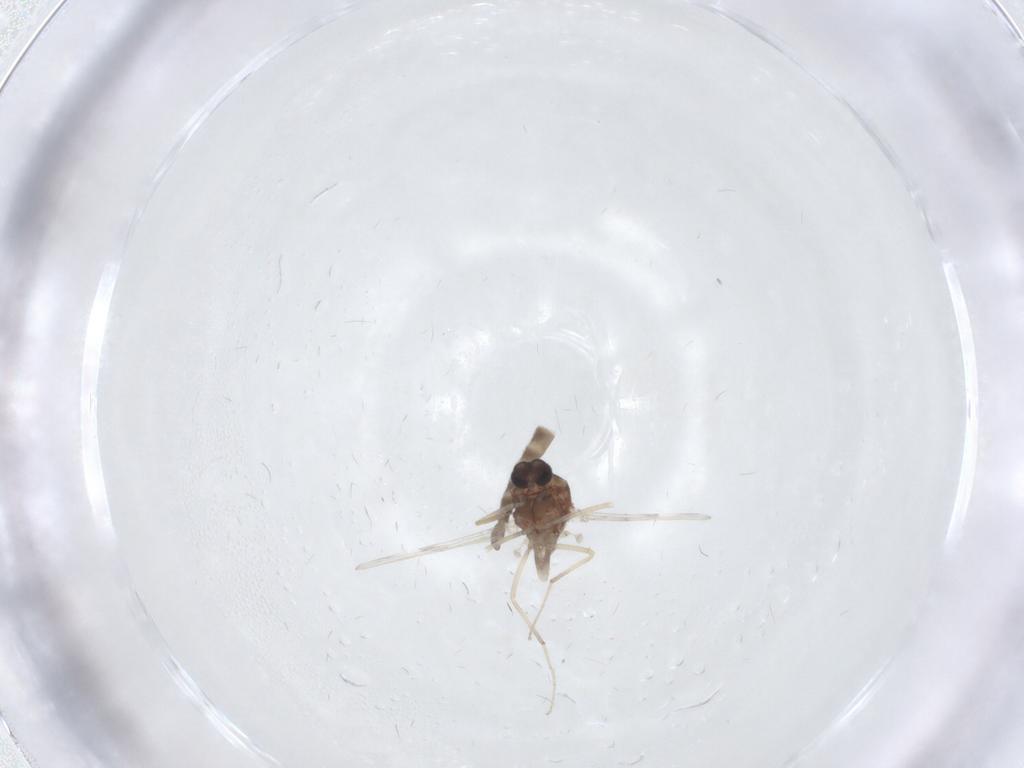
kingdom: Animalia
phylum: Arthropoda
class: Insecta
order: Diptera
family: Ceratopogonidae
